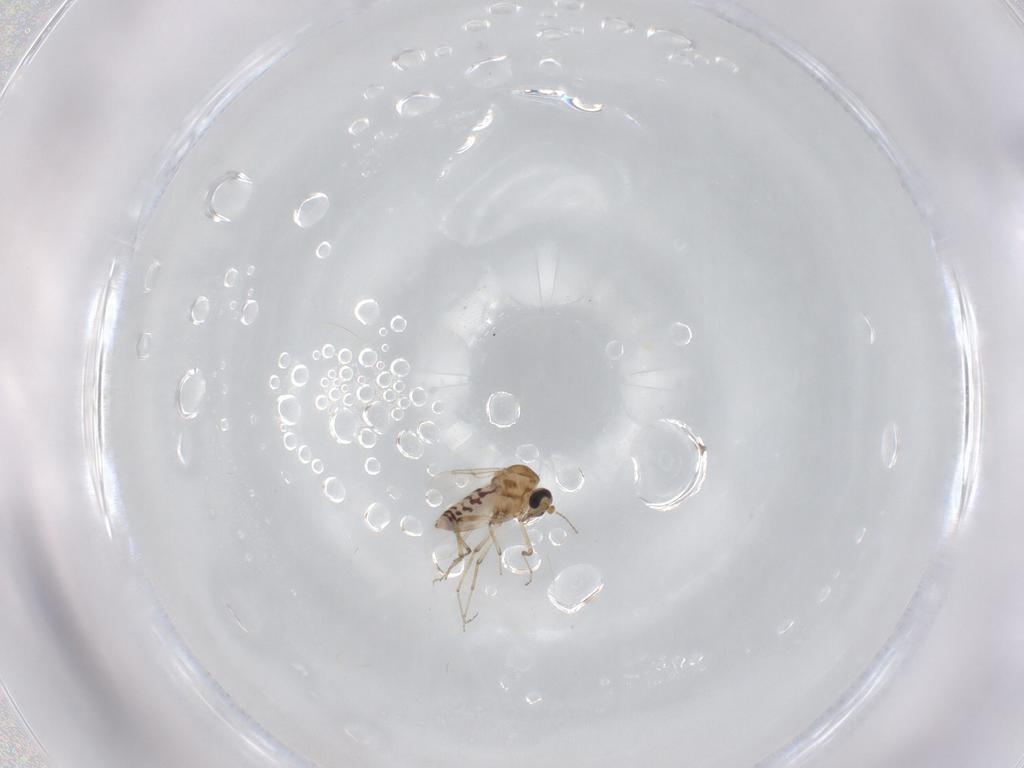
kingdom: Animalia
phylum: Arthropoda
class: Insecta
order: Diptera
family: Ceratopogonidae
